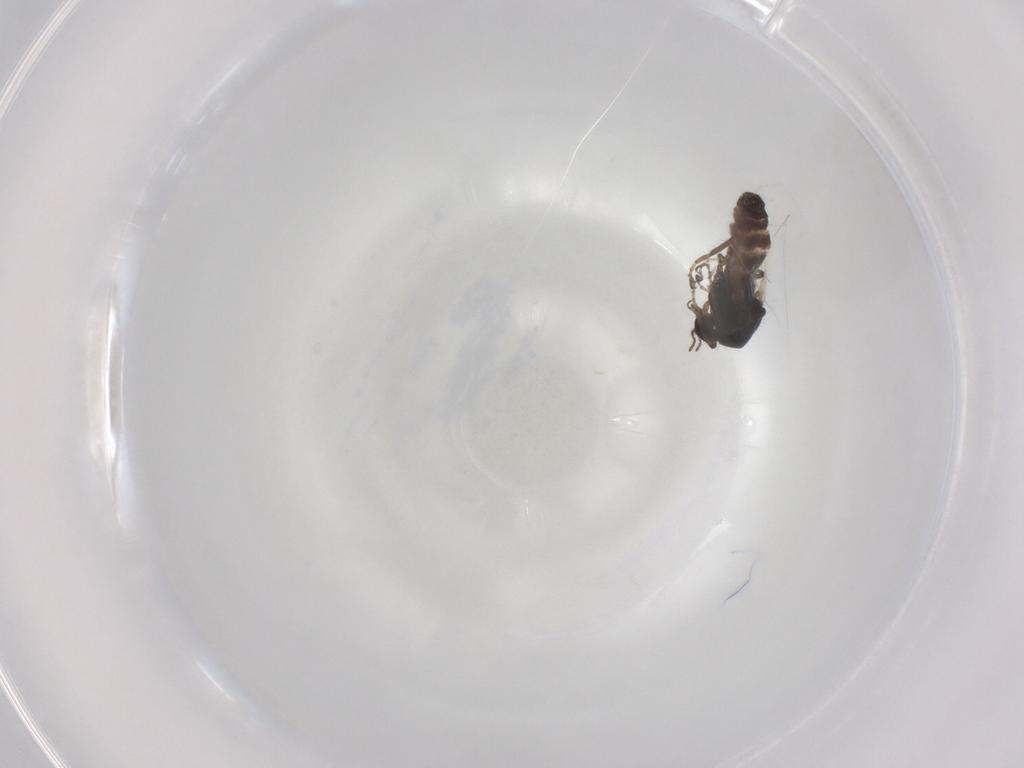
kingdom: Animalia
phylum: Arthropoda
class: Insecta
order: Diptera
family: Ceratopogonidae
